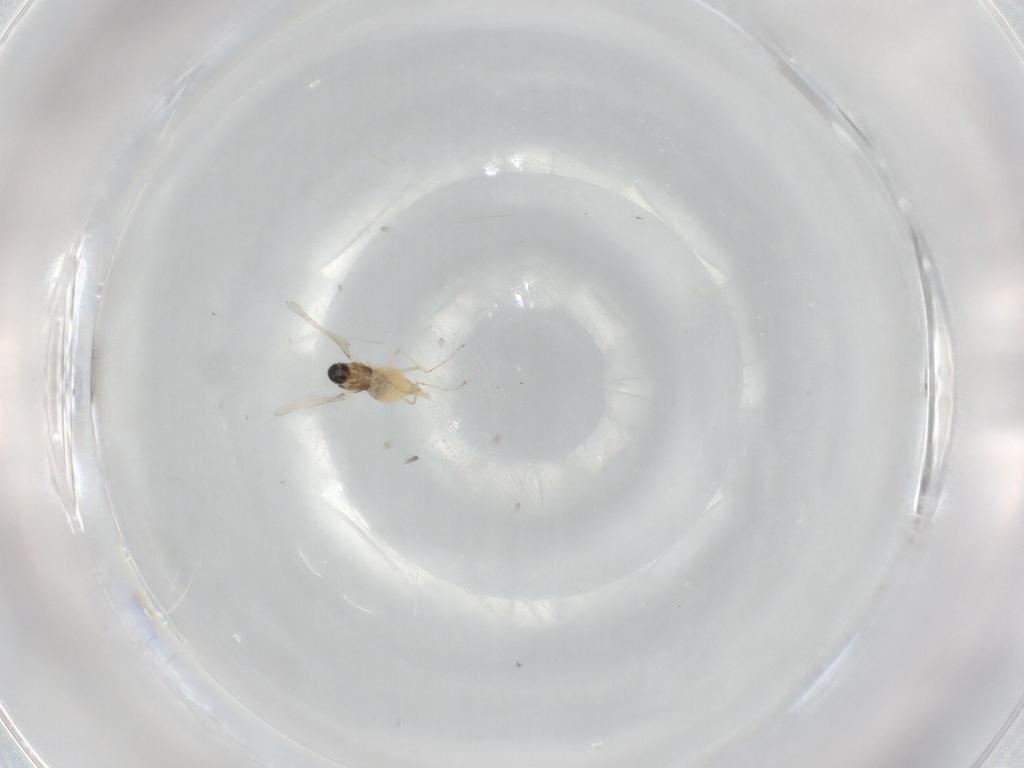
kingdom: Animalia
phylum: Arthropoda
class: Insecta
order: Diptera
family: Cecidomyiidae
